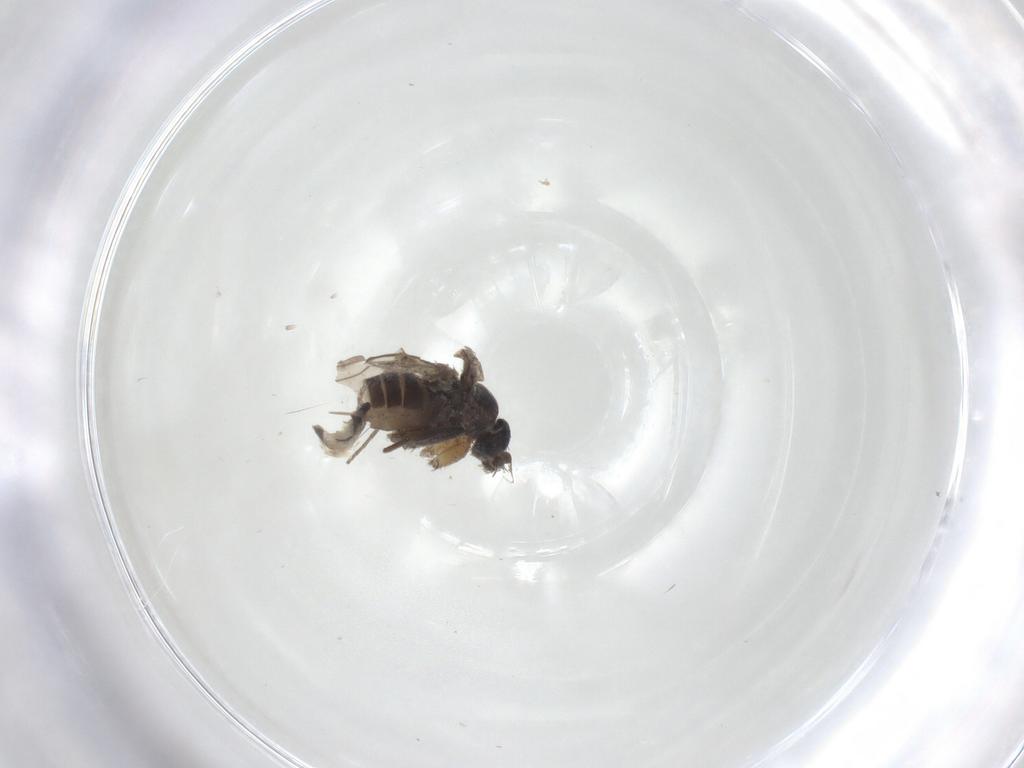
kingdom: Animalia
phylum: Arthropoda
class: Insecta
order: Diptera
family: Phoridae
